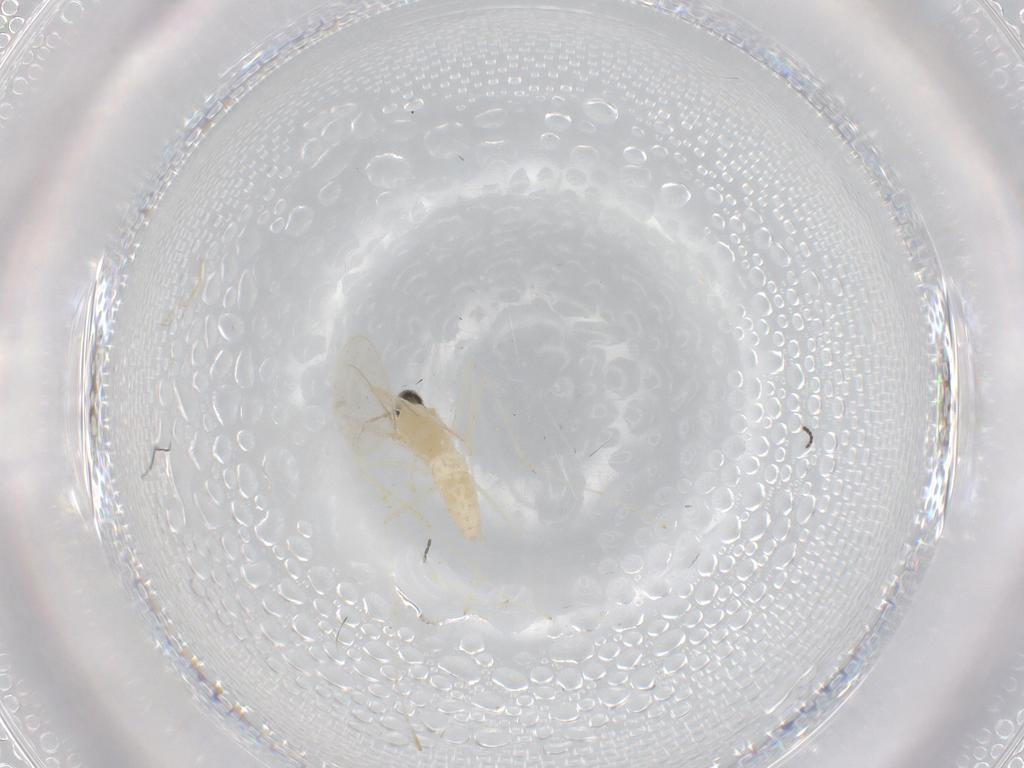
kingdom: Animalia
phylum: Arthropoda
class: Insecta
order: Diptera
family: Cecidomyiidae
